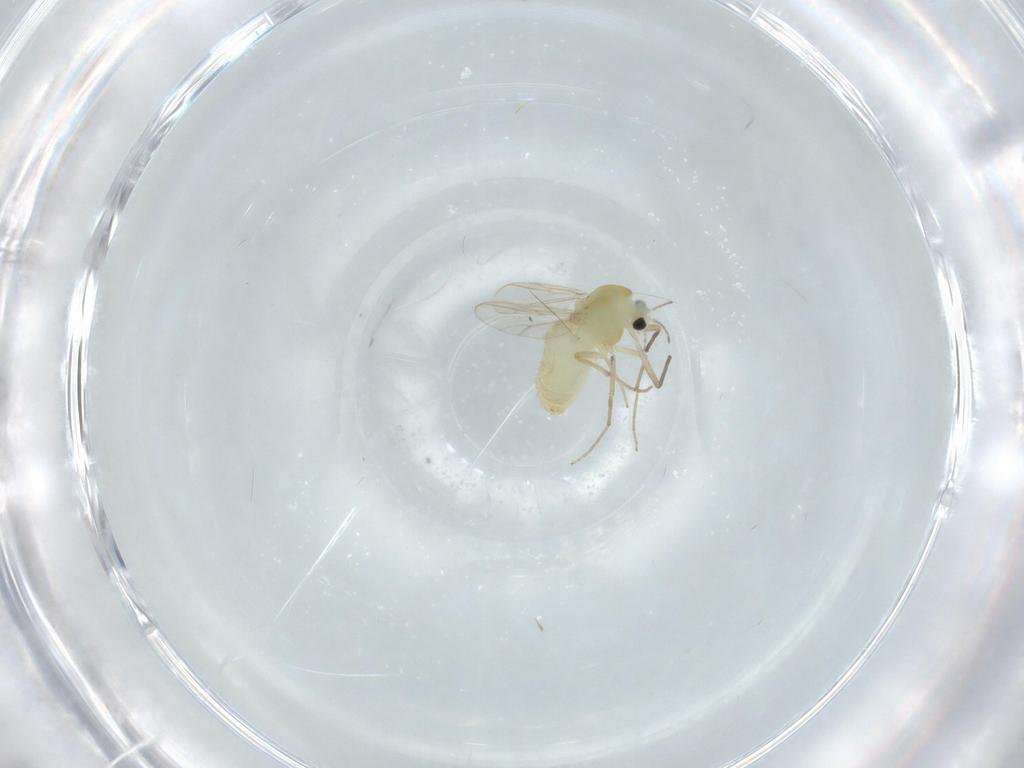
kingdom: Animalia
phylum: Arthropoda
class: Insecta
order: Diptera
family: Chironomidae
